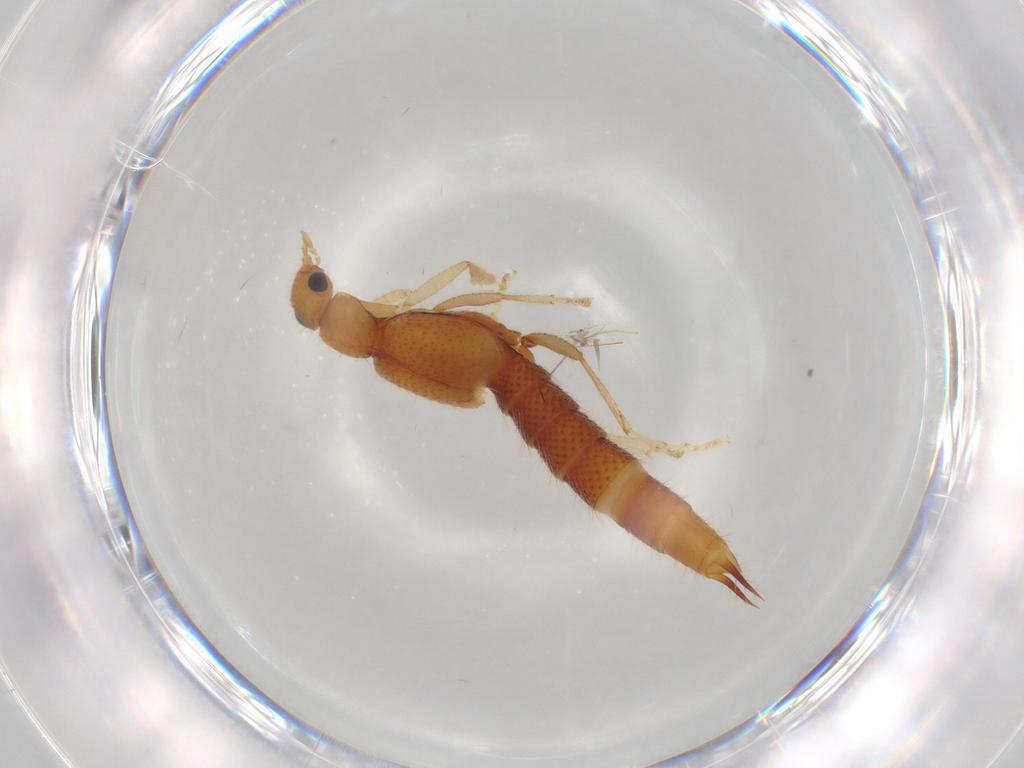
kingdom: Animalia
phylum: Arthropoda
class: Insecta
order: Coleoptera
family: Staphylinidae
